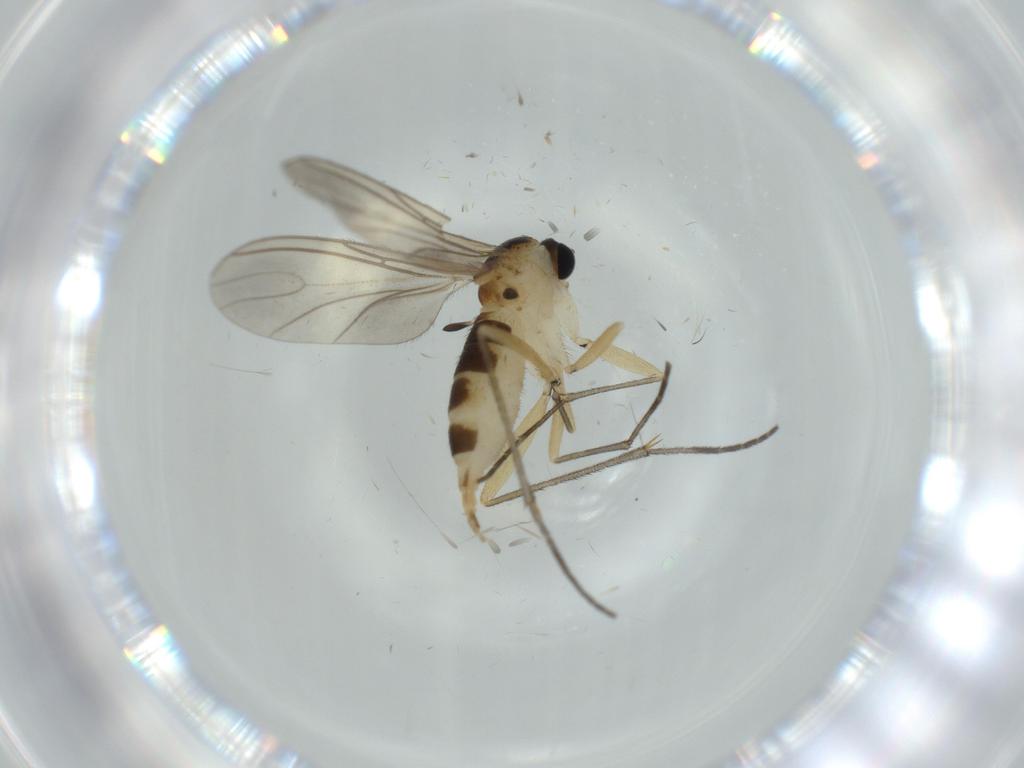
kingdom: Animalia
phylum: Arthropoda
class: Insecta
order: Diptera
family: Sciaridae
